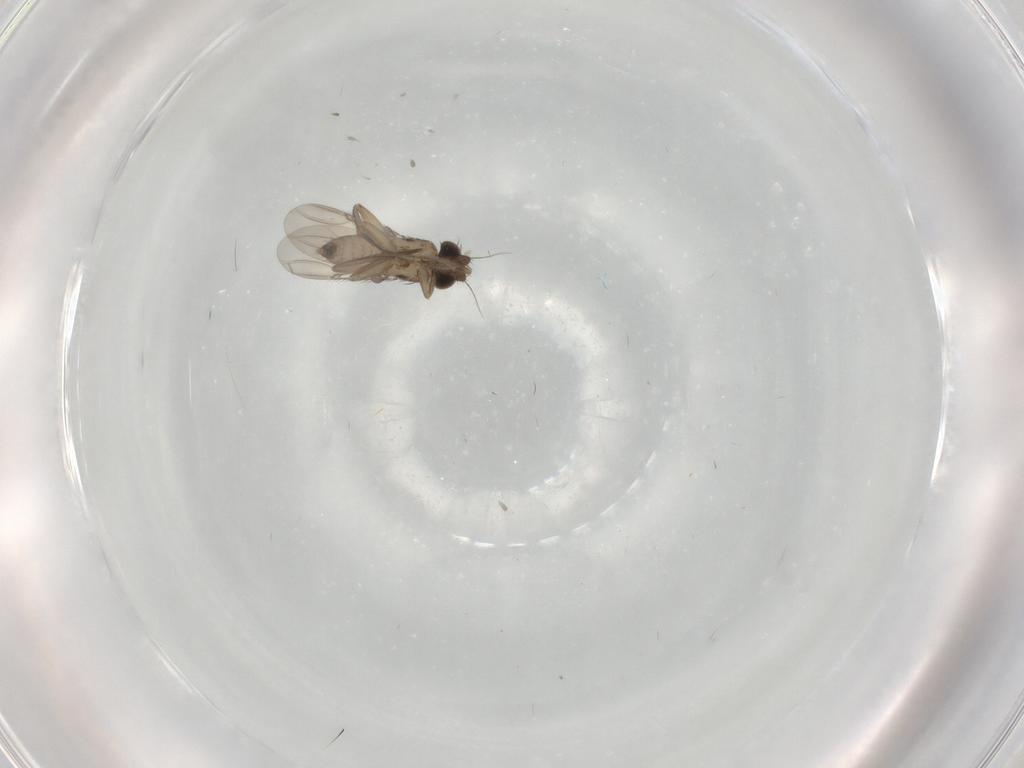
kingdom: Animalia
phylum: Arthropoda
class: Insecta
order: Diptera
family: Phoridae
